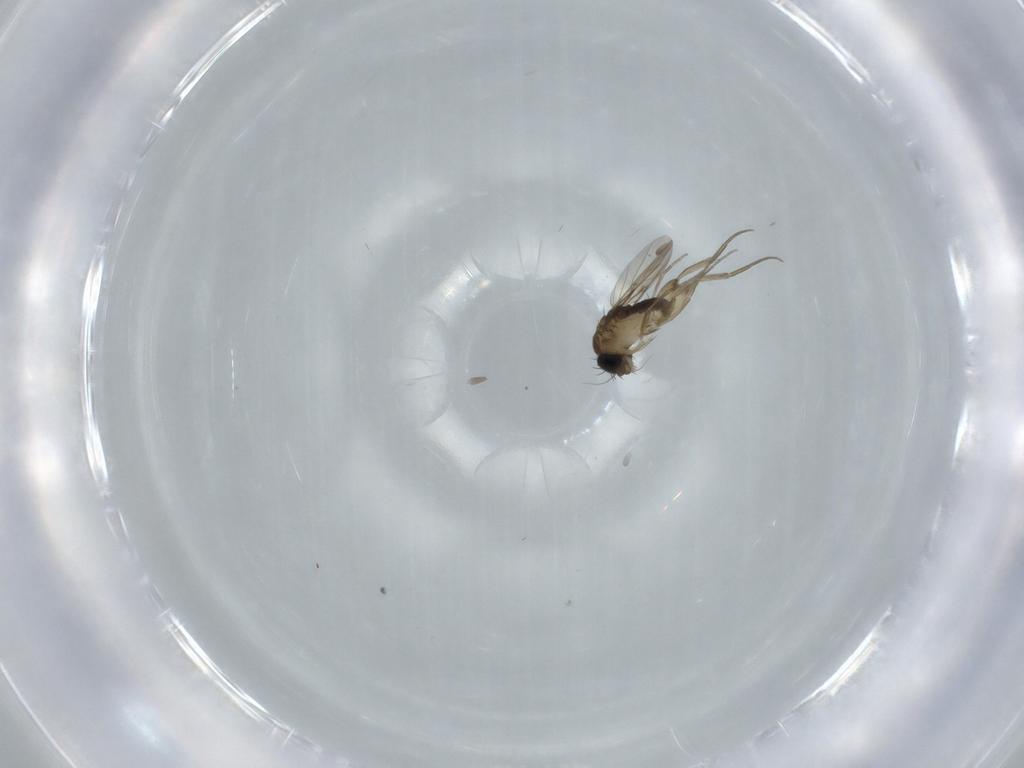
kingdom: Animalia
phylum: Arthropoda
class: Insecta
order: Diptera
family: Phoridae
